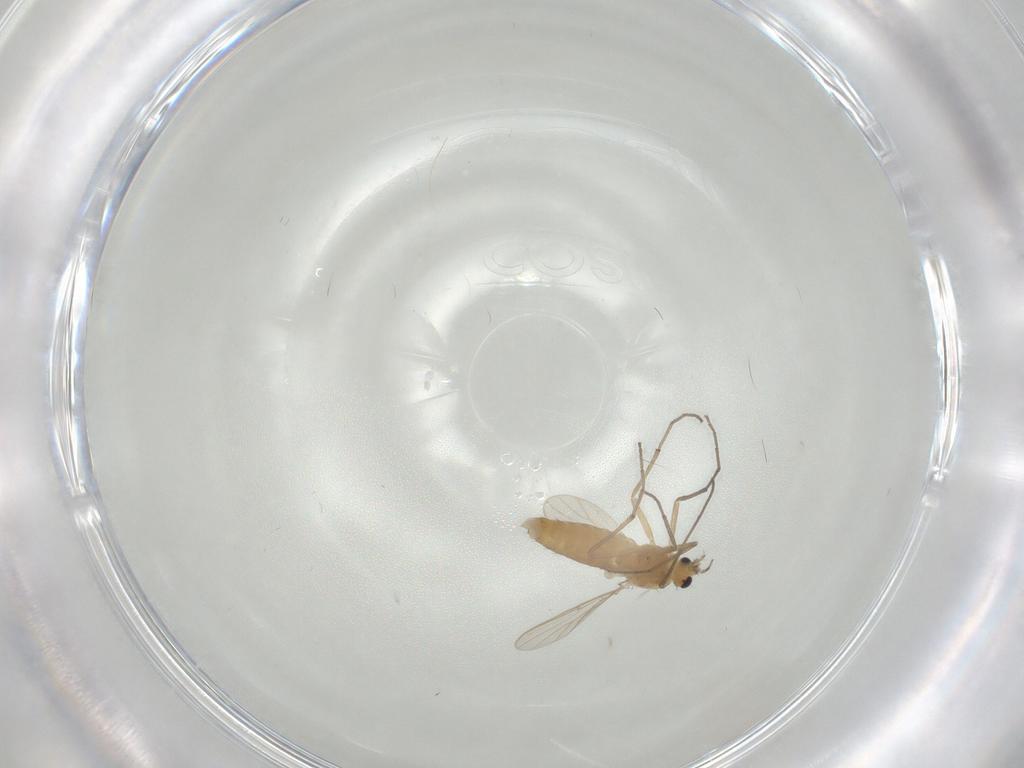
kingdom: Animalia
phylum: Arthropoda
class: Insecta
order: Diptera
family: Chironomidae
